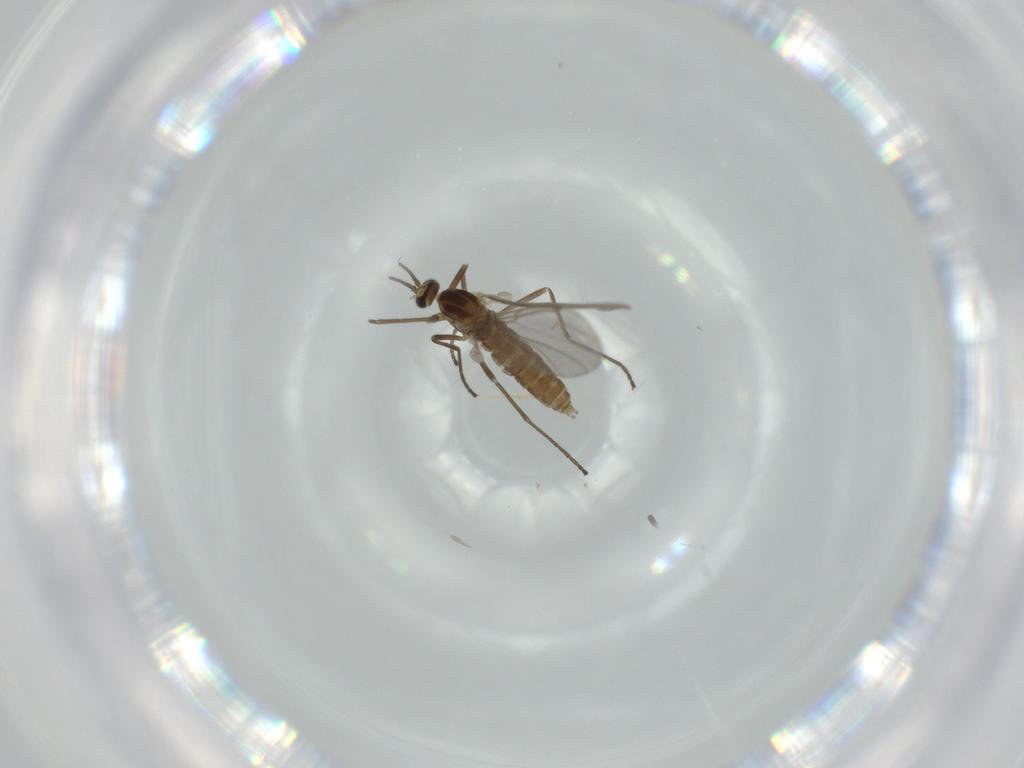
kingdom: Animalia
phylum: Arthropoda
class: Insecta
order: Diptera
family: Cecidomyiidae
